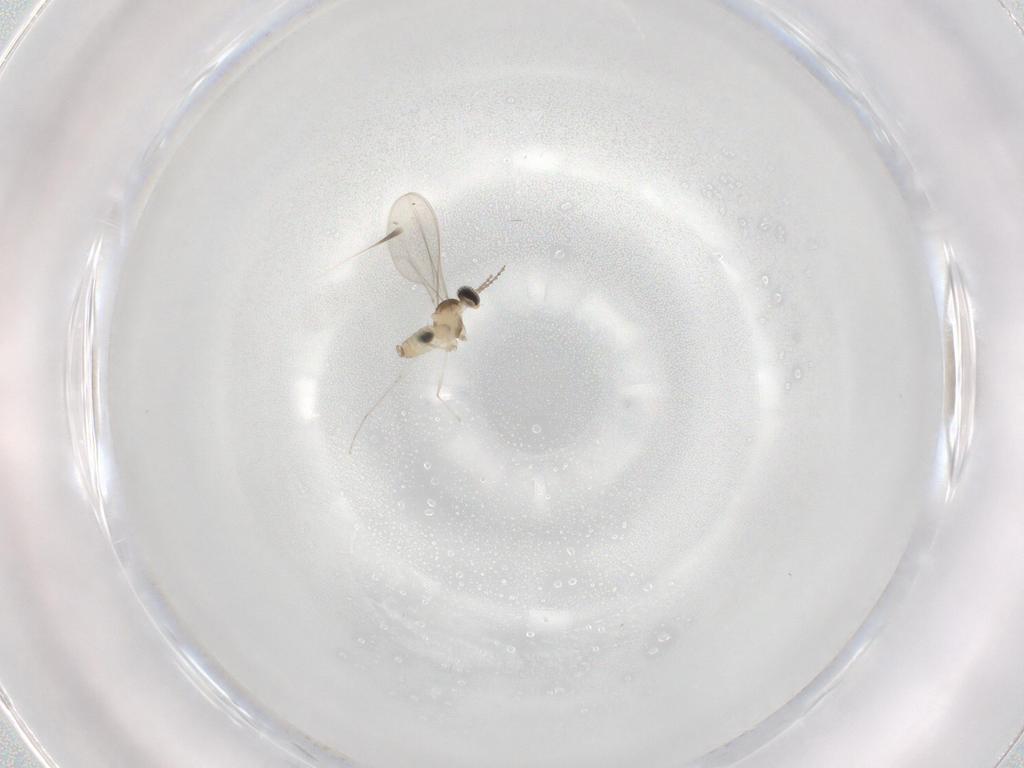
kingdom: Animalia
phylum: Arthropoda
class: Insecta
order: Diptera
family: Cecidomyiidae
